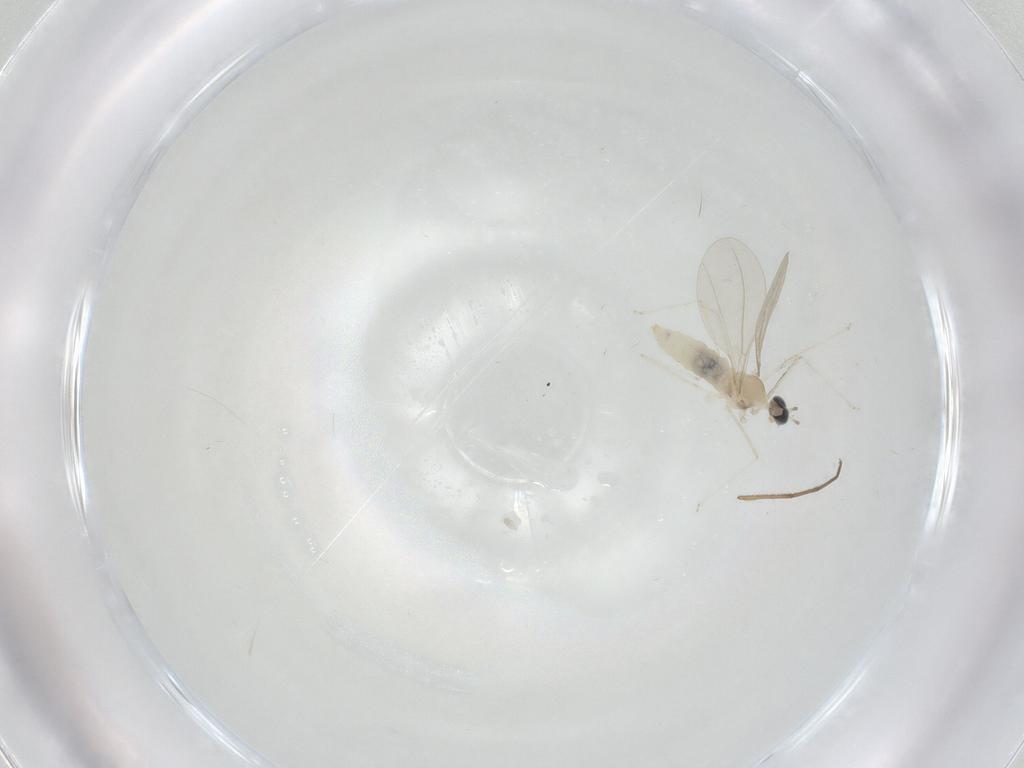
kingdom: Animalia
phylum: Arthropoda
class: Insecta
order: Diptera
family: Cecidomyiidae
